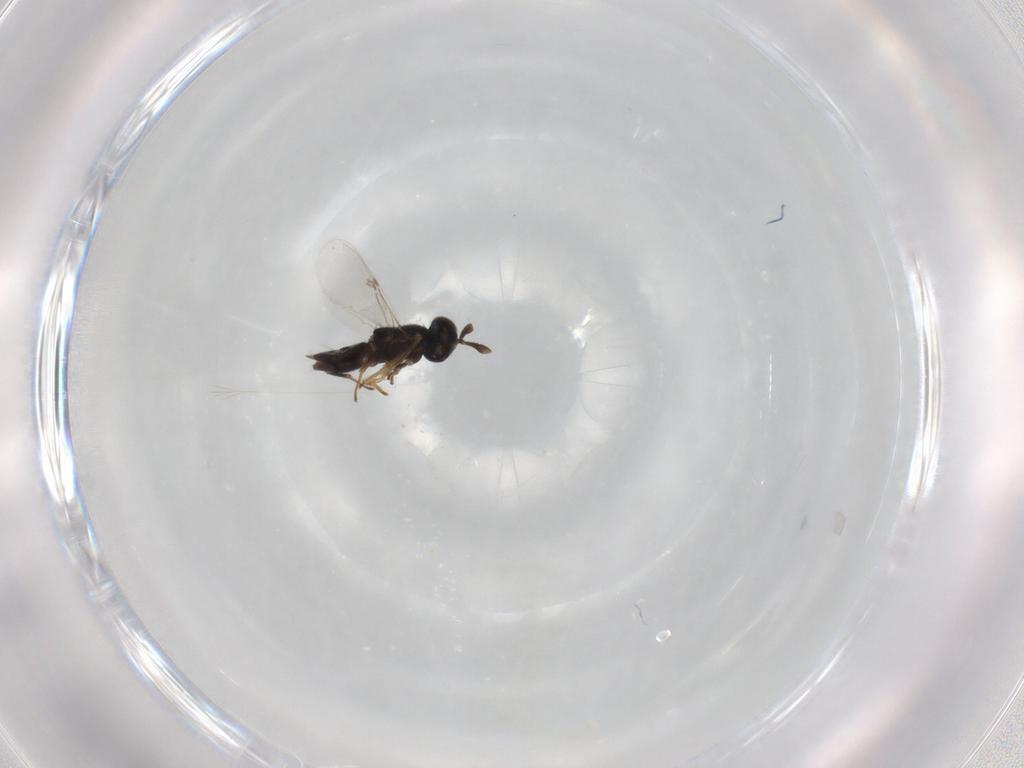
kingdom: Animalia
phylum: Arthropoda
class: Insecta
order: Hymenoptera
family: Encyrtidae
